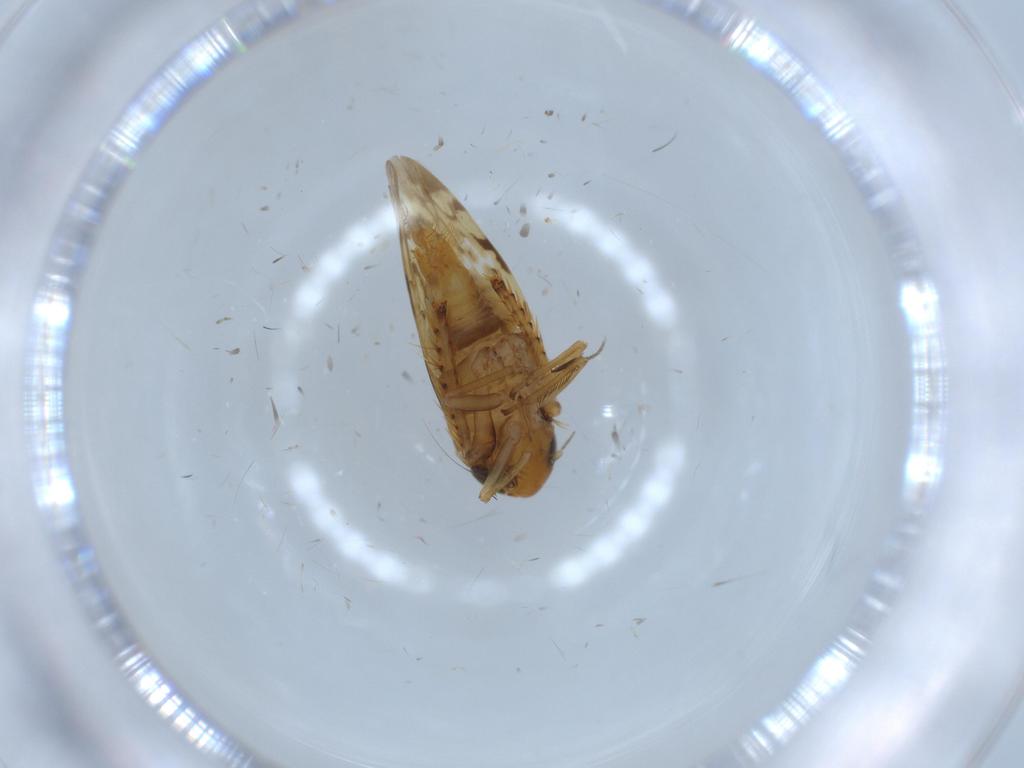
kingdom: Animalia
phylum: Arthropoda
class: Insecta
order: Hemiptera
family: Cicadellidae
